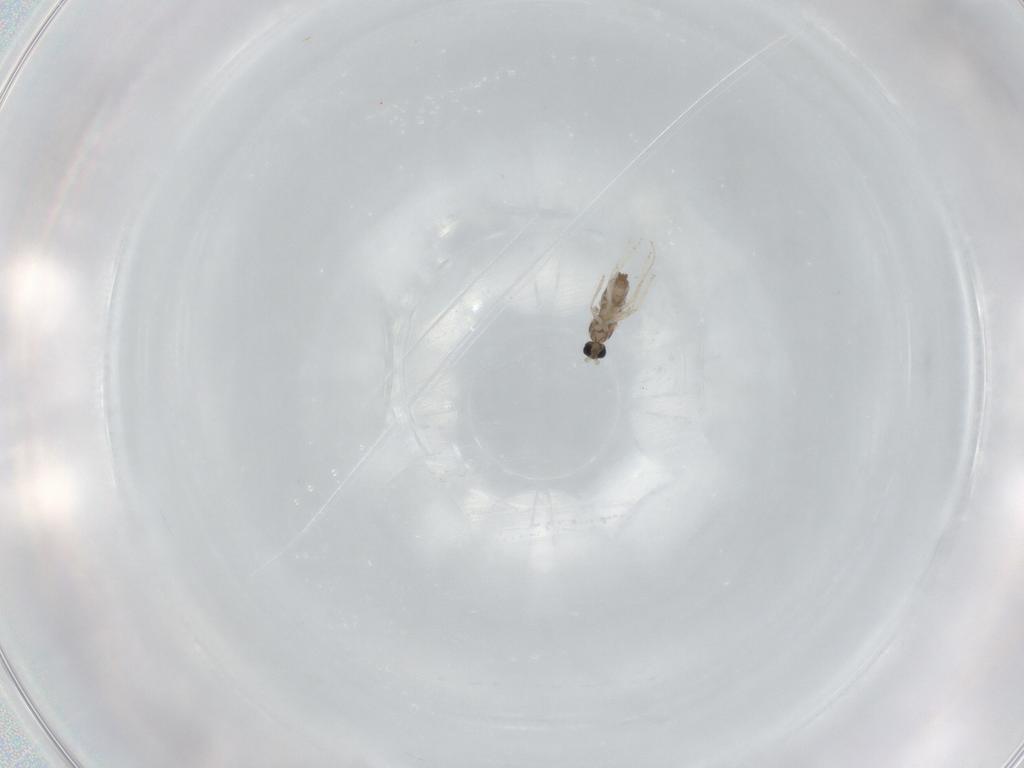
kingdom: Animalia
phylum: Arthropoda
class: Insecta
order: Diptera
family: Cecidomyiidae
